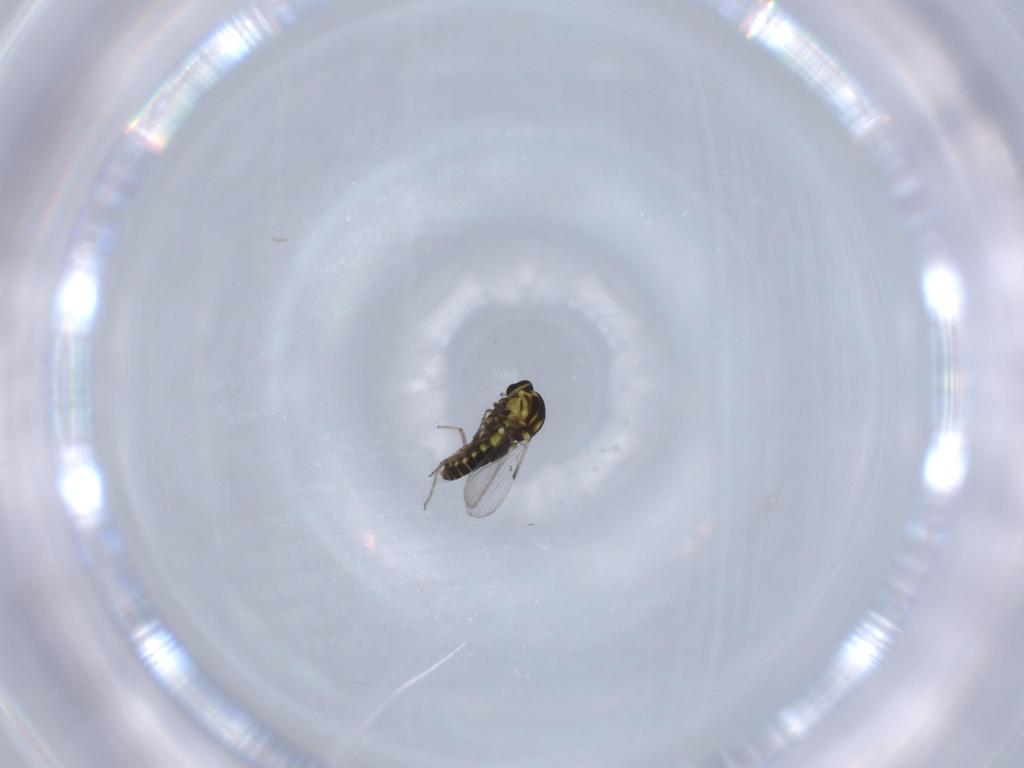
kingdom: Animalia
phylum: Arthropoda
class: Insecta
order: Diptera
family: Ceratopogonidae
